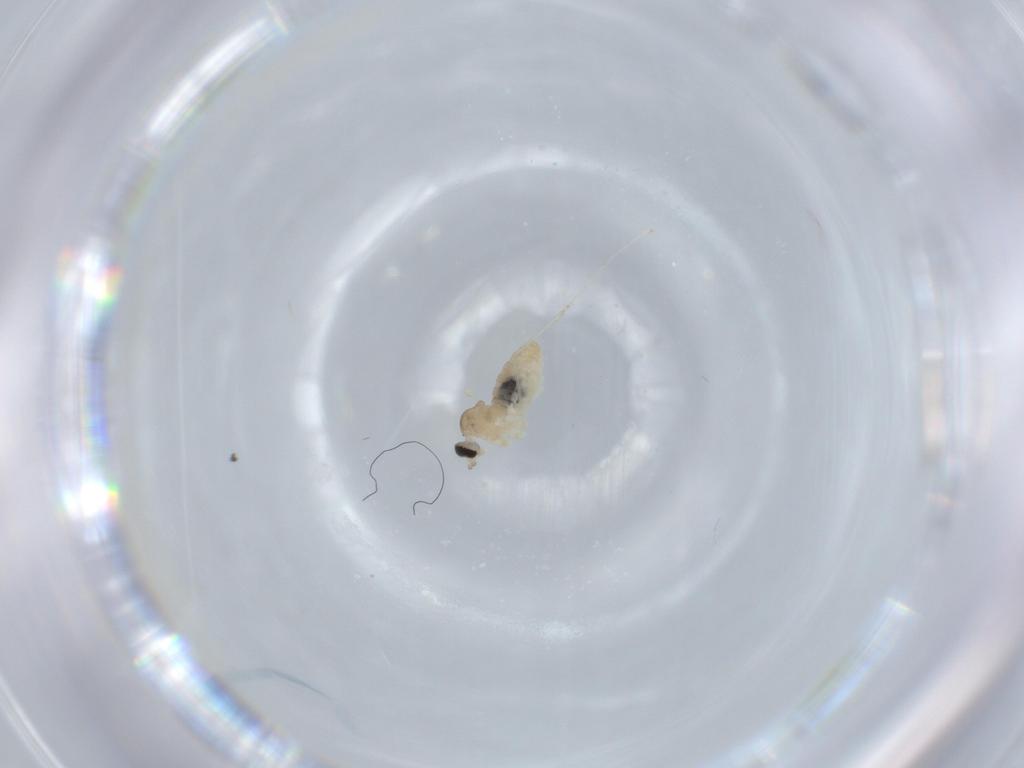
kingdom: Animalia
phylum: Arthropoda
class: Insecta
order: Diptera
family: Cecidomyiidae
